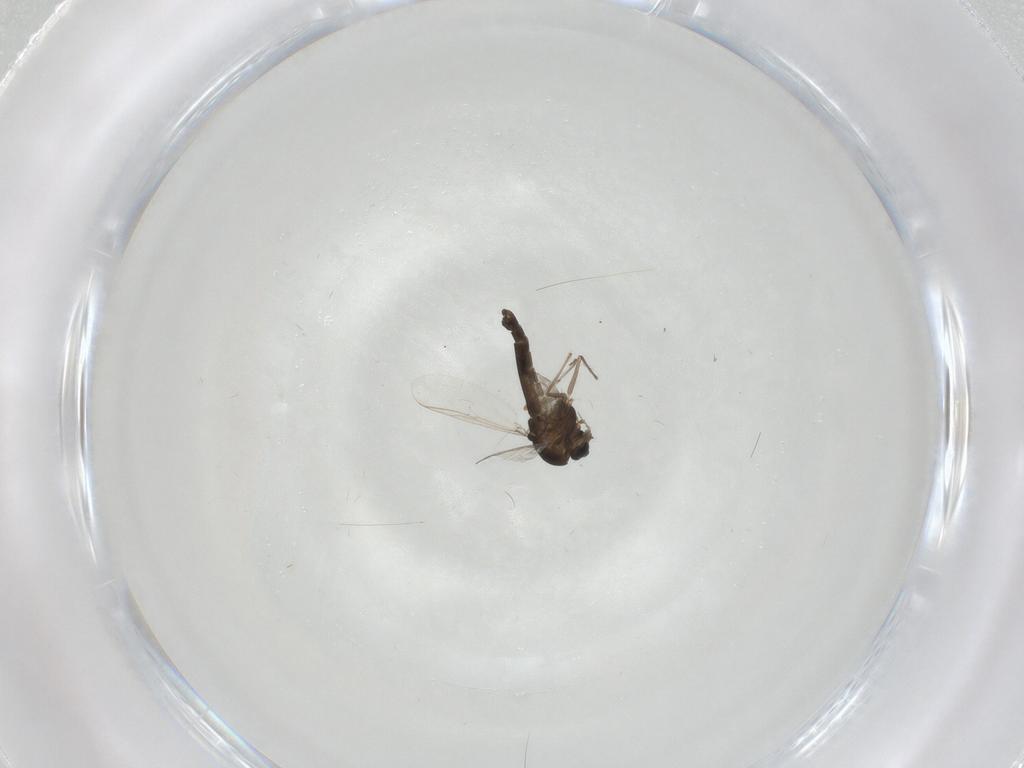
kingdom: Animalia
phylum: Arthropoda
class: Insecta
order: Diptera
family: Chironomidae
